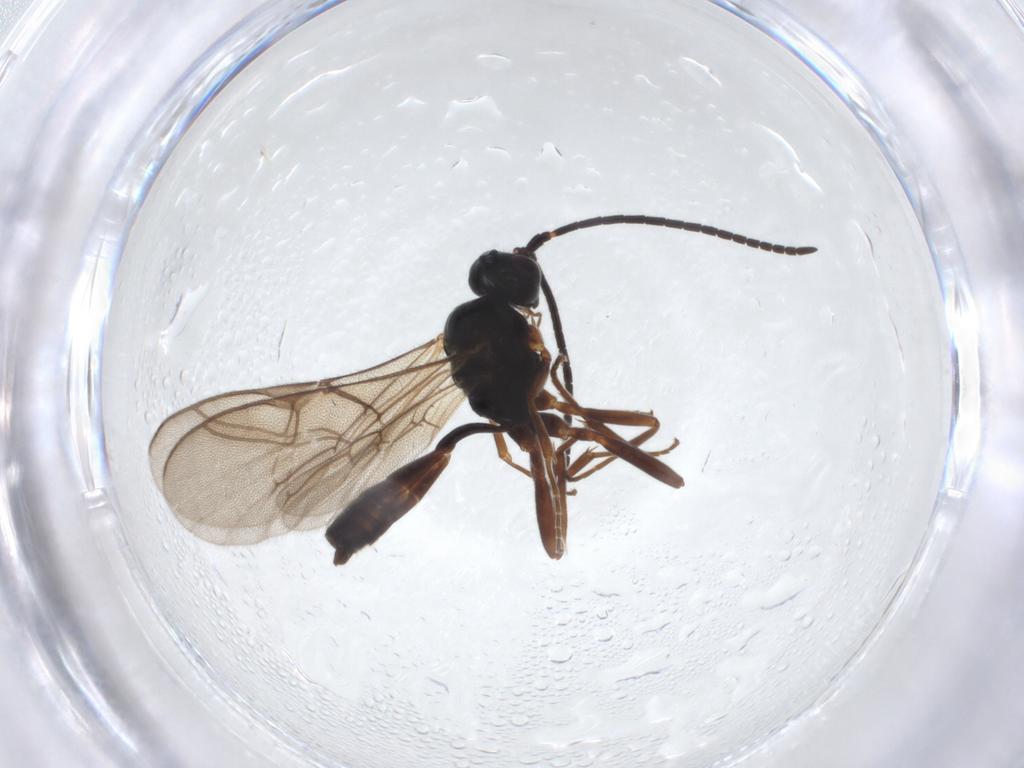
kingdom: Animalia
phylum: Arthropoda
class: Insecta
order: Hymenoptera
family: Ichneumonidae
